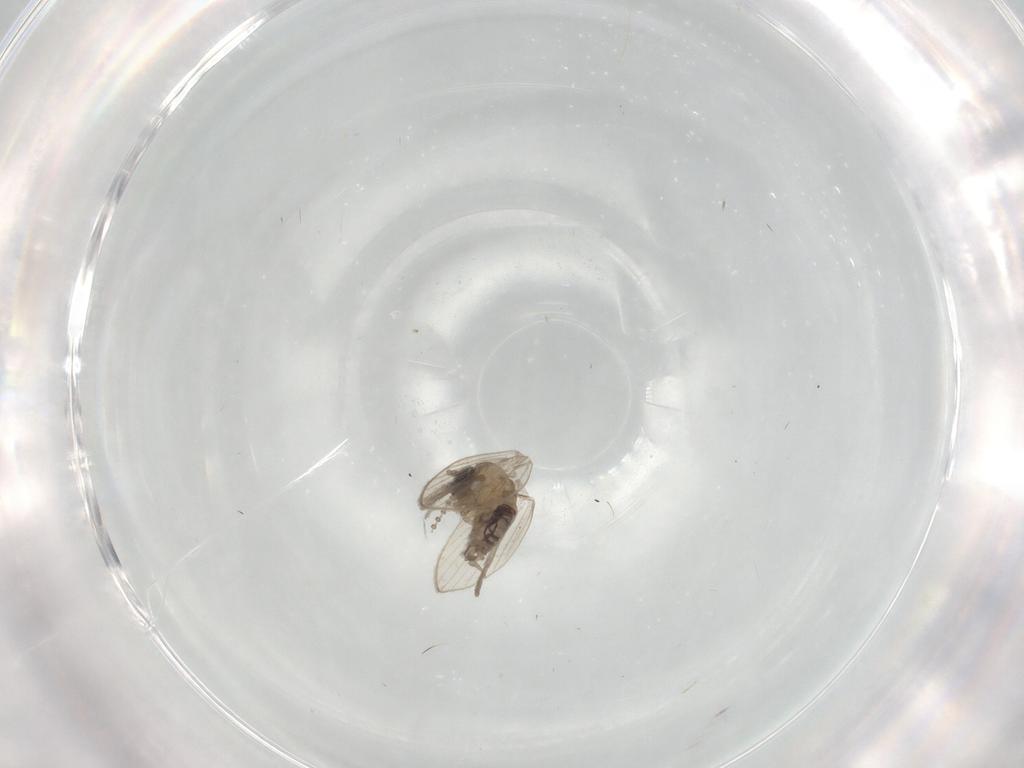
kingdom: Animalia
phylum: Arthropoda
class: Insecta
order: Diptera
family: Psychodidae
